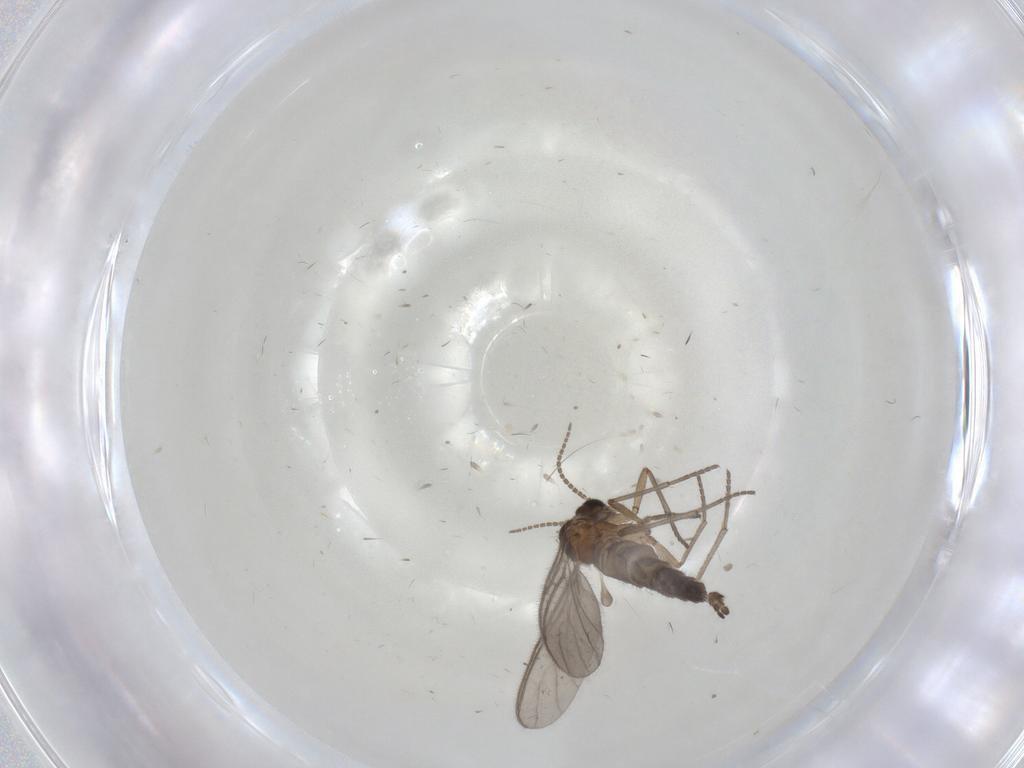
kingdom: Animalia
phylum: Arthropoda
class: Insecta
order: Diptera
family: Sciaridae
